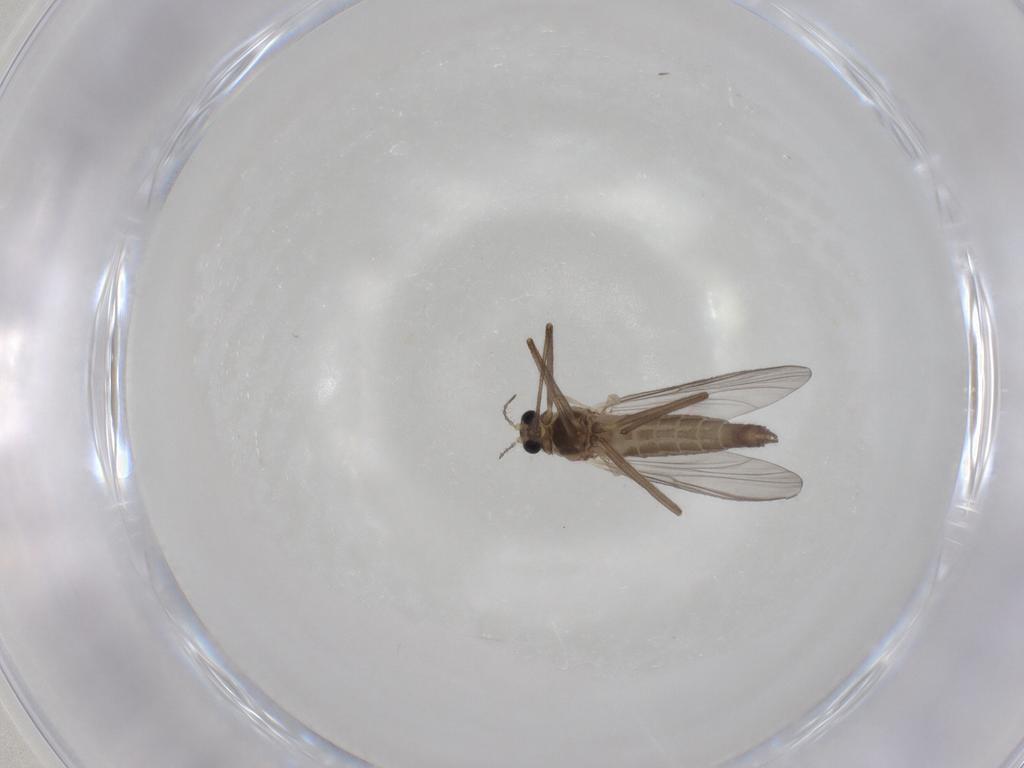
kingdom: Animalia
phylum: Arthropoda
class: Insecta
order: Diptera
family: Chironomidae
